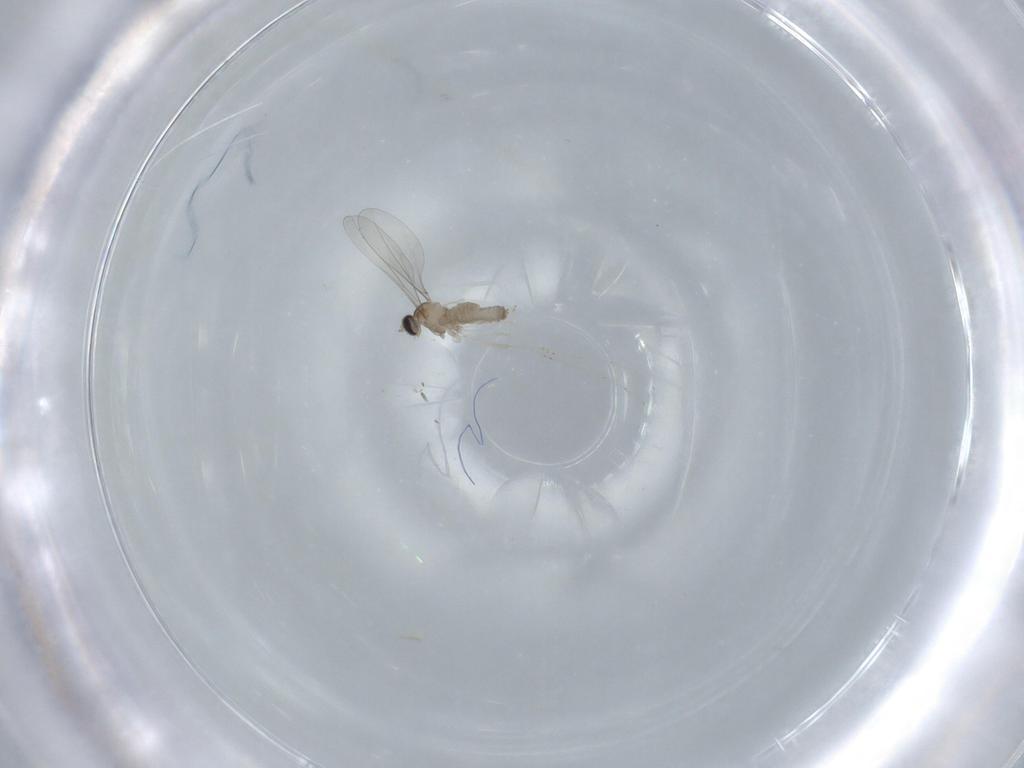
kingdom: Animalia
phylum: Arthropoda
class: Insecta
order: Diptera
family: Cecidomyiidae
